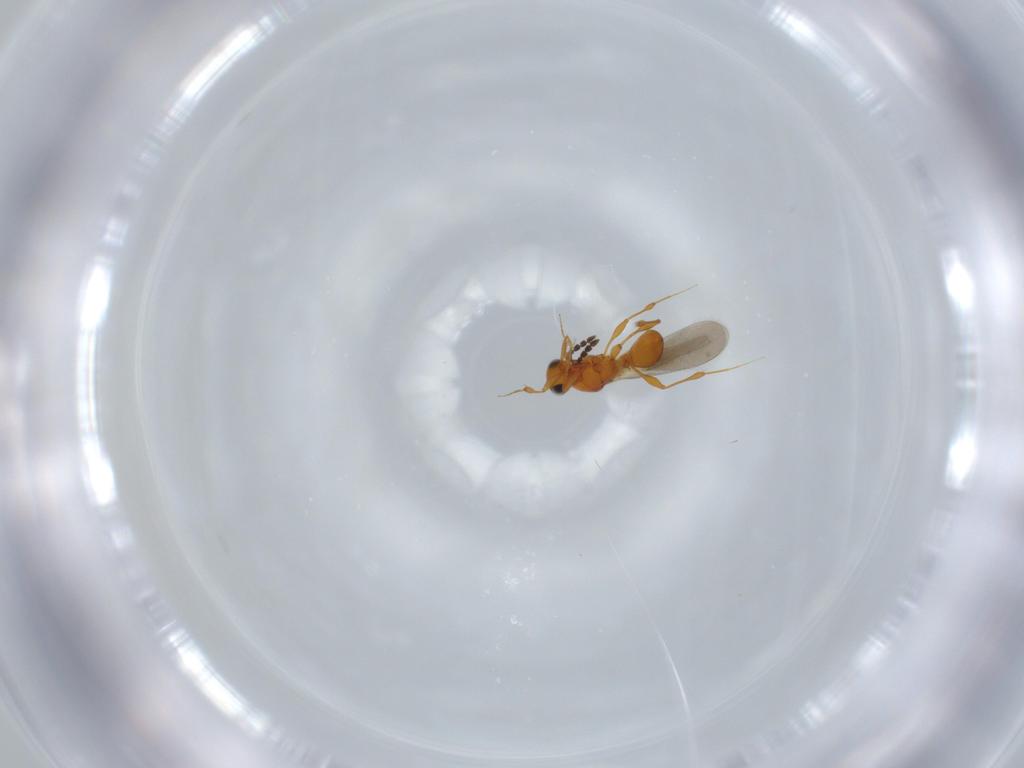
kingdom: Animalia
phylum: Arthropoda
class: Insecta
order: Hymenoptera
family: Platygastridae
